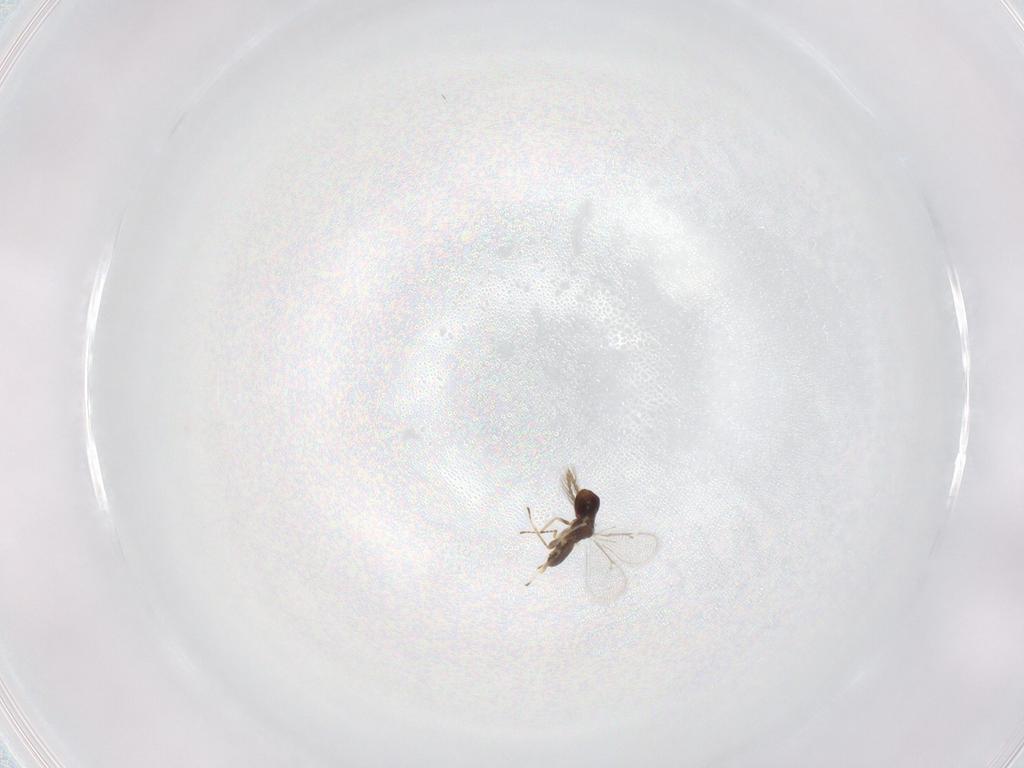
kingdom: Animalia
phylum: Arthropoda
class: Insecta
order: Hymenoptera
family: Eulophidae
